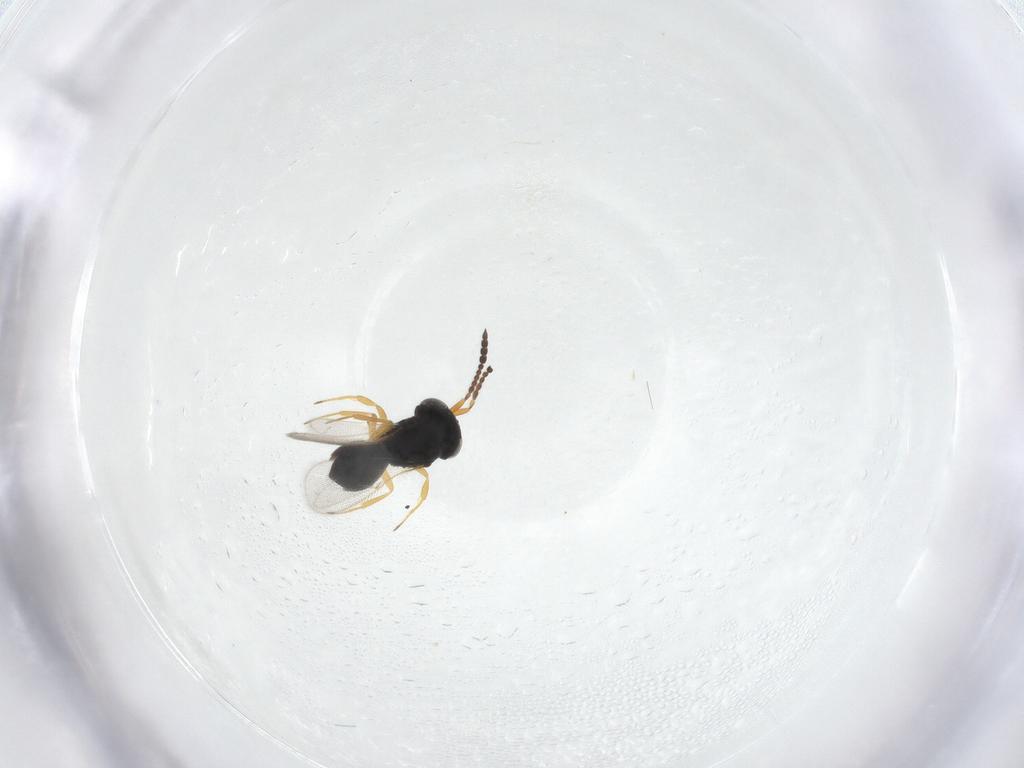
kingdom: Animalia
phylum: Arthropoda
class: Insecta
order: Hymenoptera
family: Scelionidae
